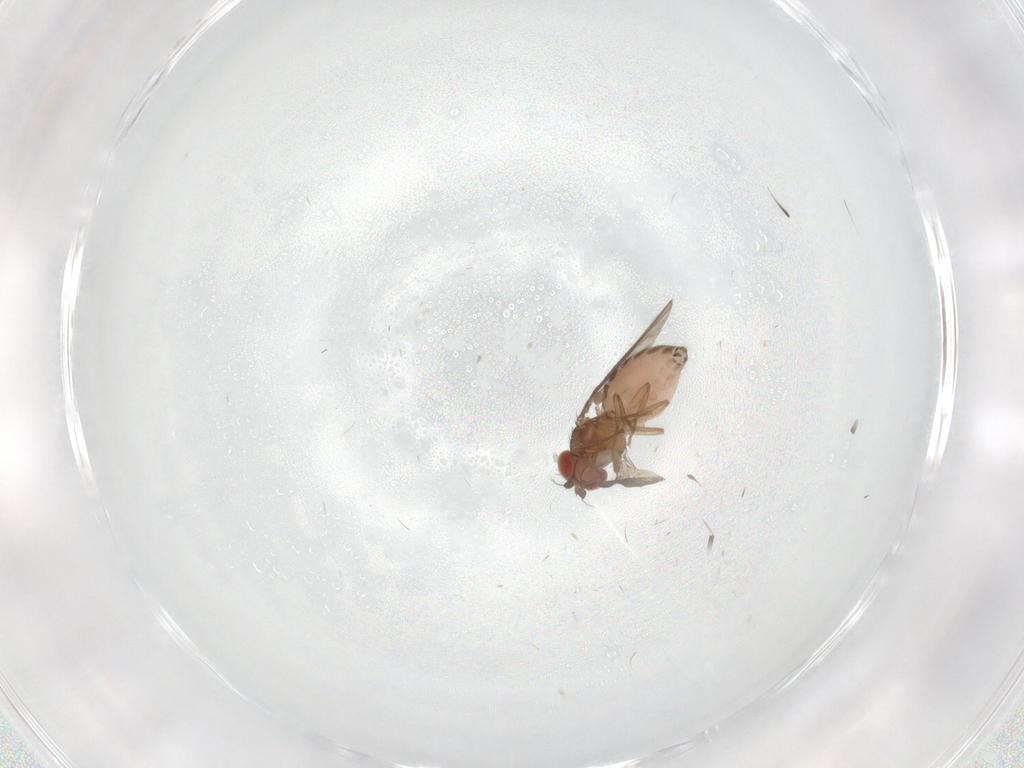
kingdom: Animalia
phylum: Arthropoda
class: Insecta
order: Diptera
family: Drosophilidae
